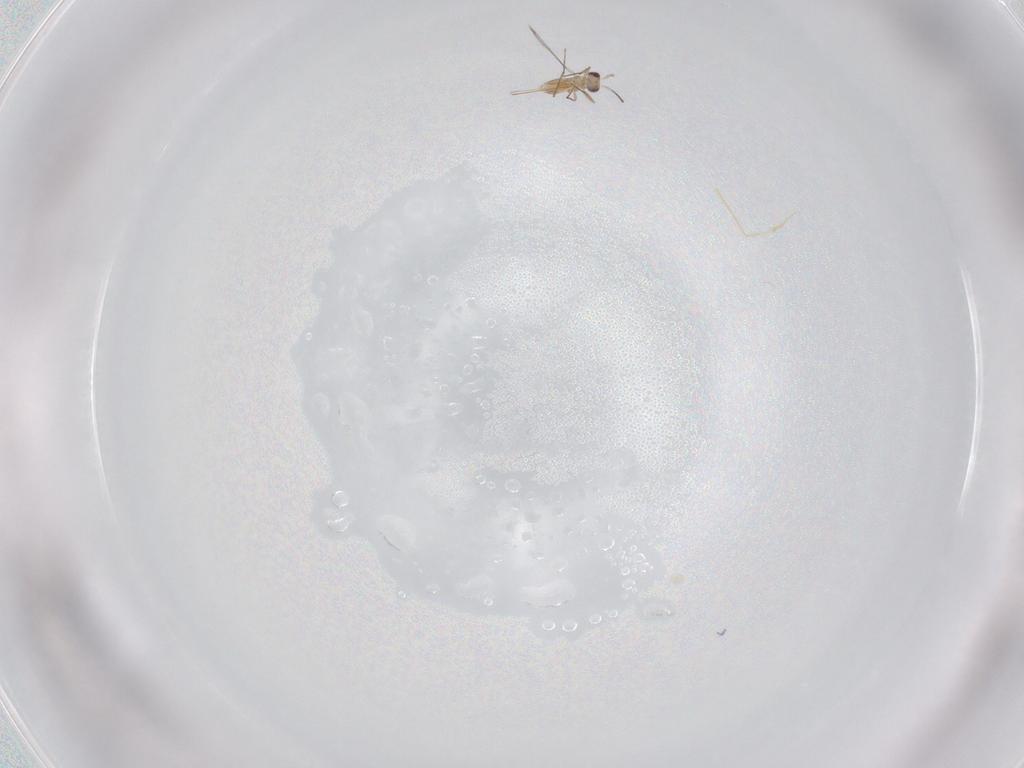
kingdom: Animalia
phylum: Arthropoda
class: Insecta
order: Hymenoptera
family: Mymaridae
